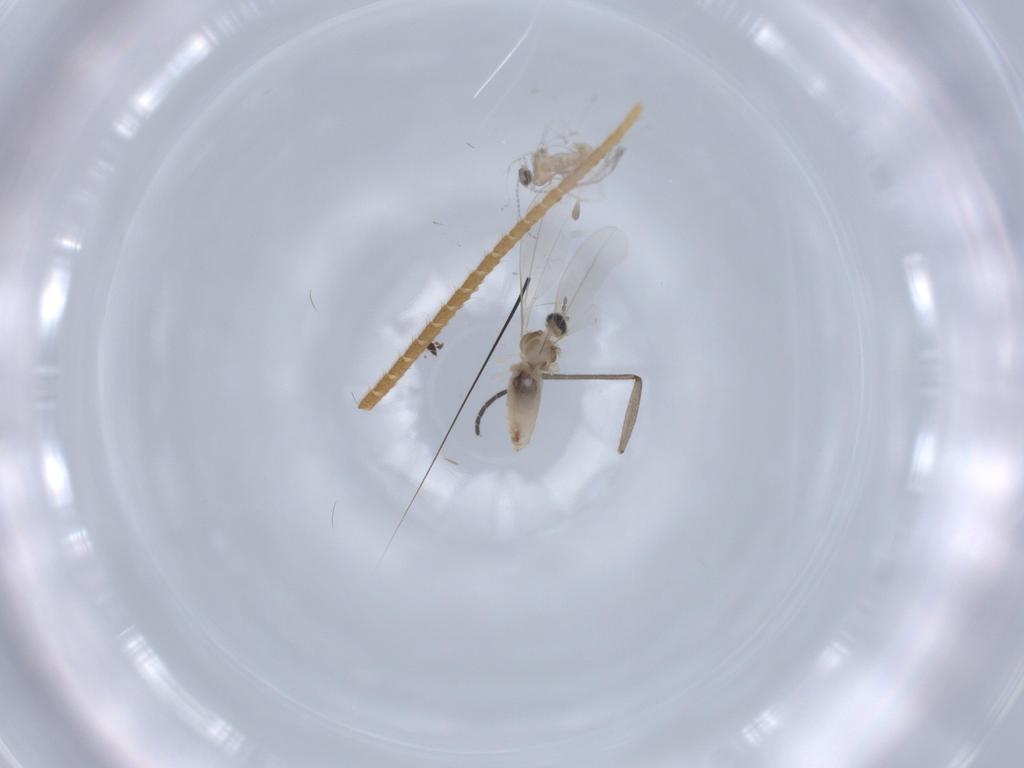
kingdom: Animalia
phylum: Arthropoda
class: Insecta
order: Diptera
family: Cecidomyiidae
